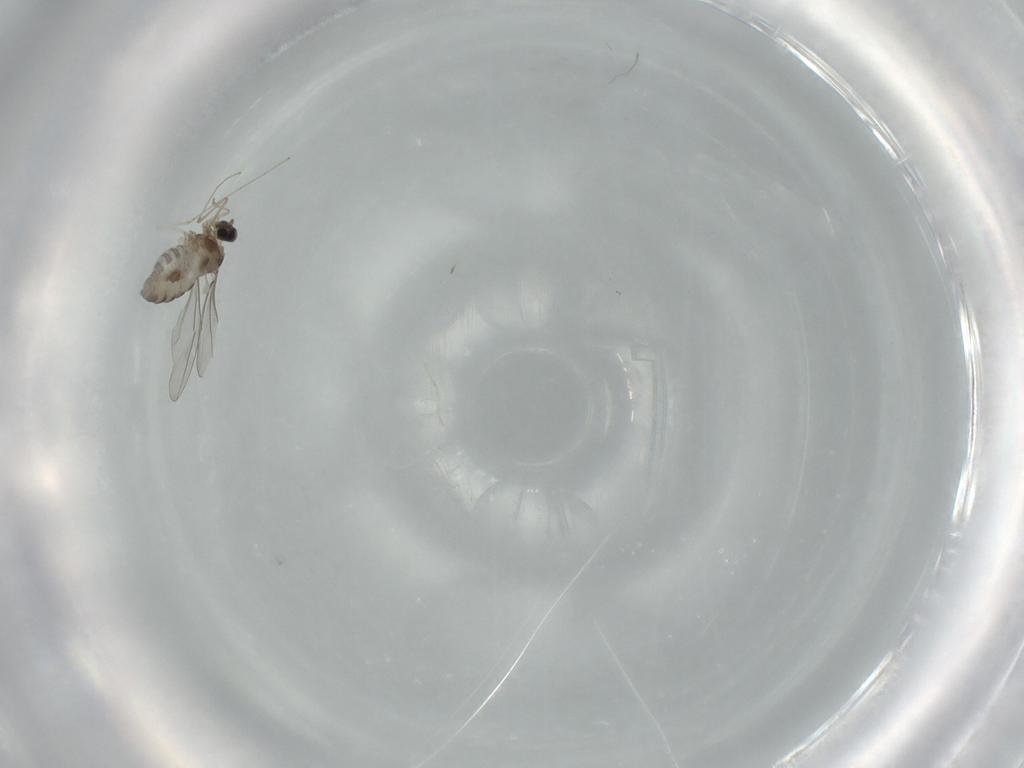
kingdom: Animalia
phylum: Arthropoda
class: Insecta
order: Diptera
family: Cecidomyiidae
